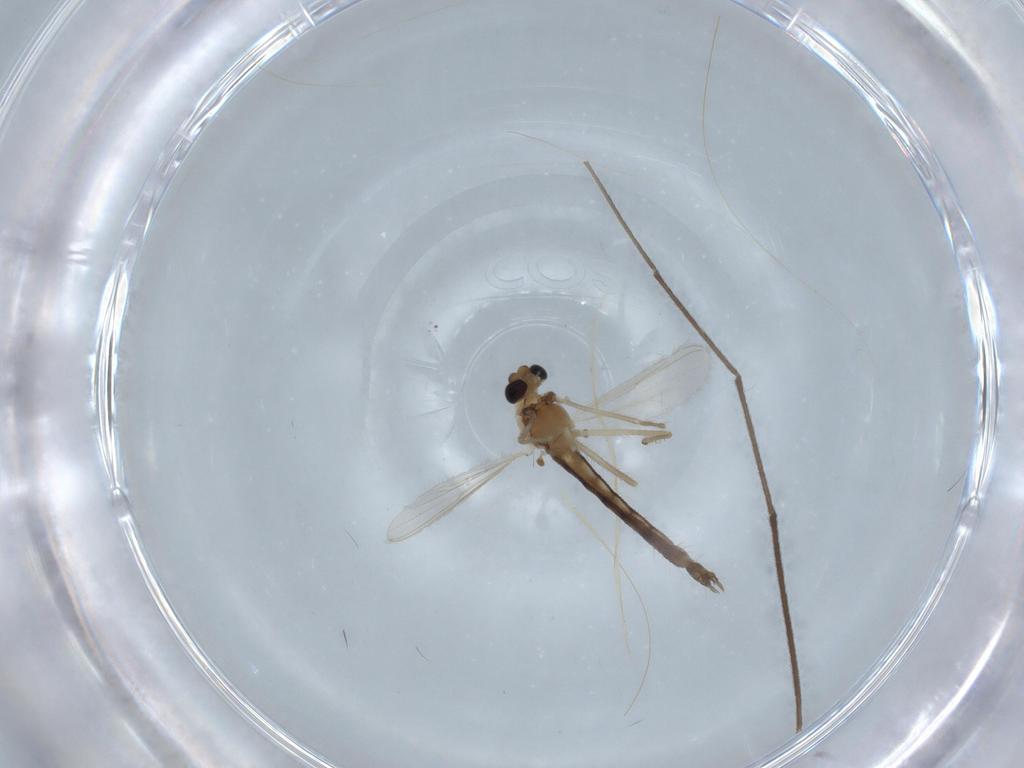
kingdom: Animalia
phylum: Arthropoda
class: Insecta
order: Diptera
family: Chironomidae
